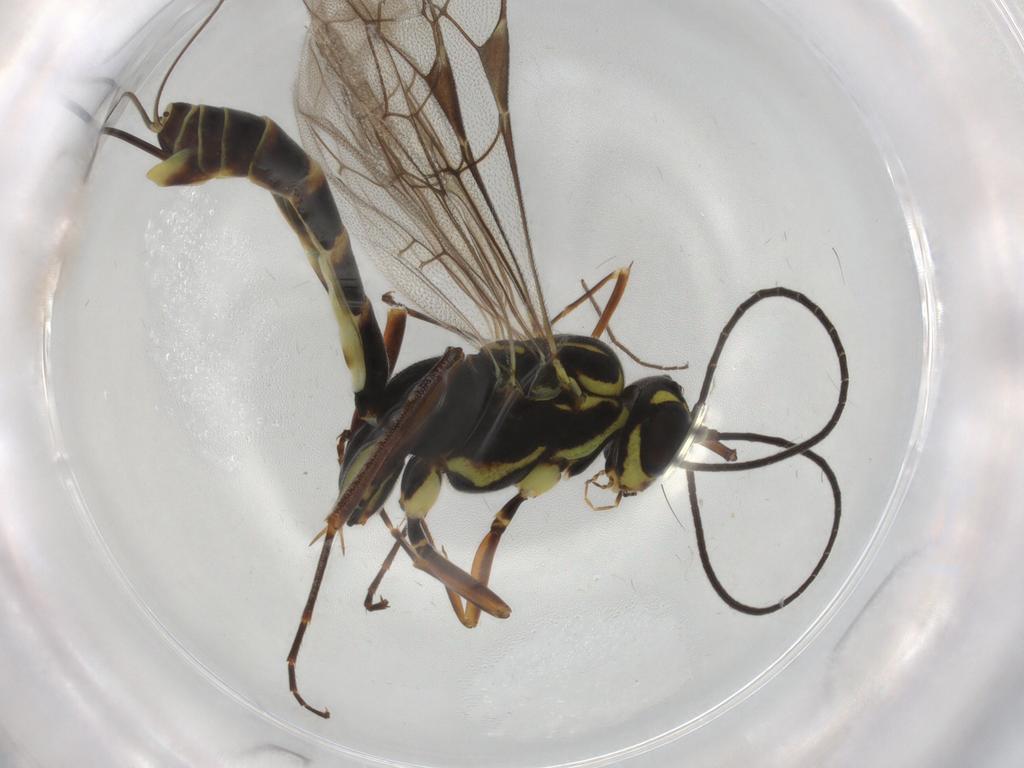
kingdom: Animalia
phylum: Arthropoda
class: Insecta
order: Hymenoptera
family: Ichneumonidae
